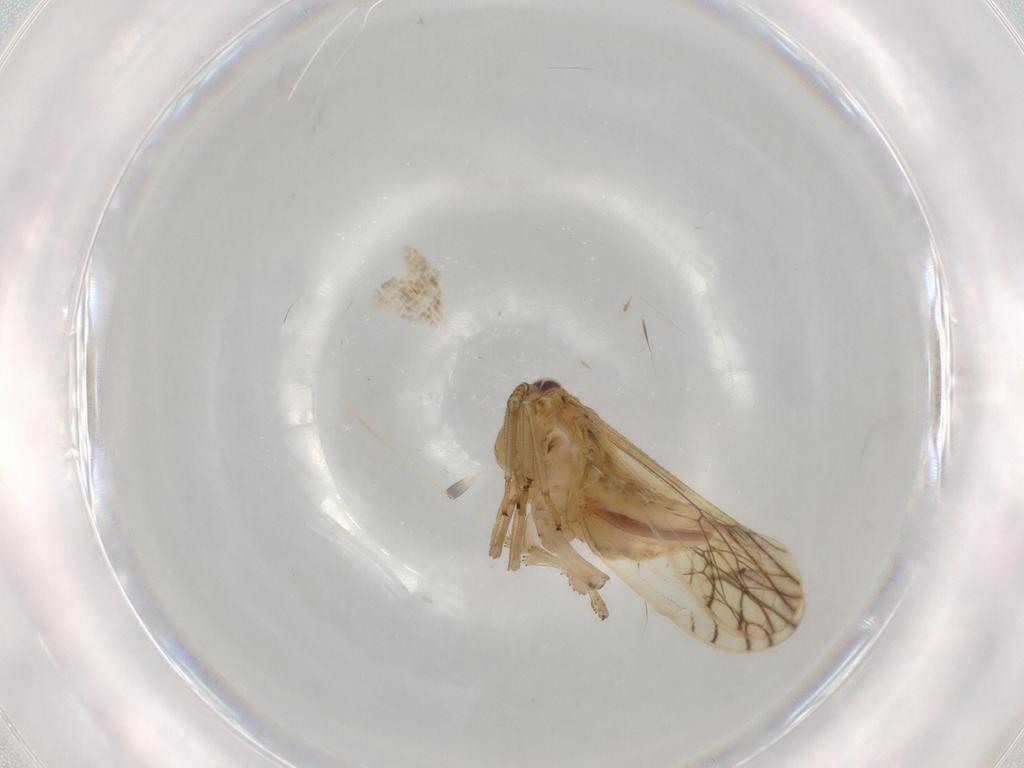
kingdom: Animalia
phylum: Arthropoda
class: Insecta
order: Hemiptera
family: Delphacidae
